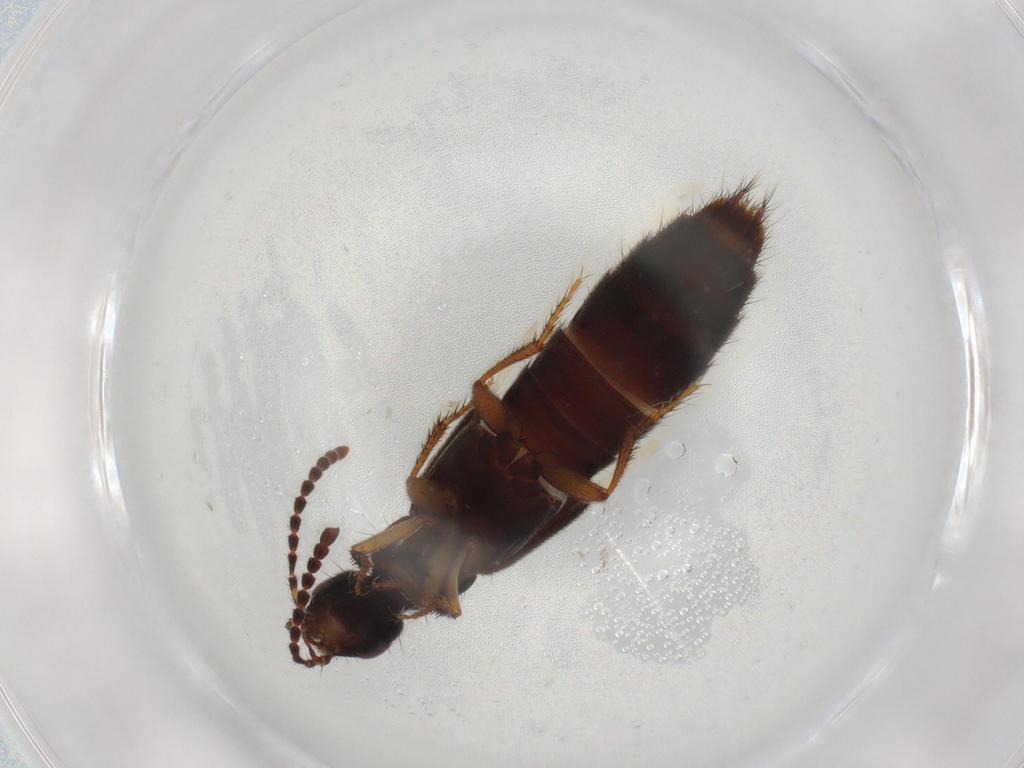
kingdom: Animalia
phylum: Arthropoda
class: Insecta
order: Coleoptera
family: Staphylinidae
